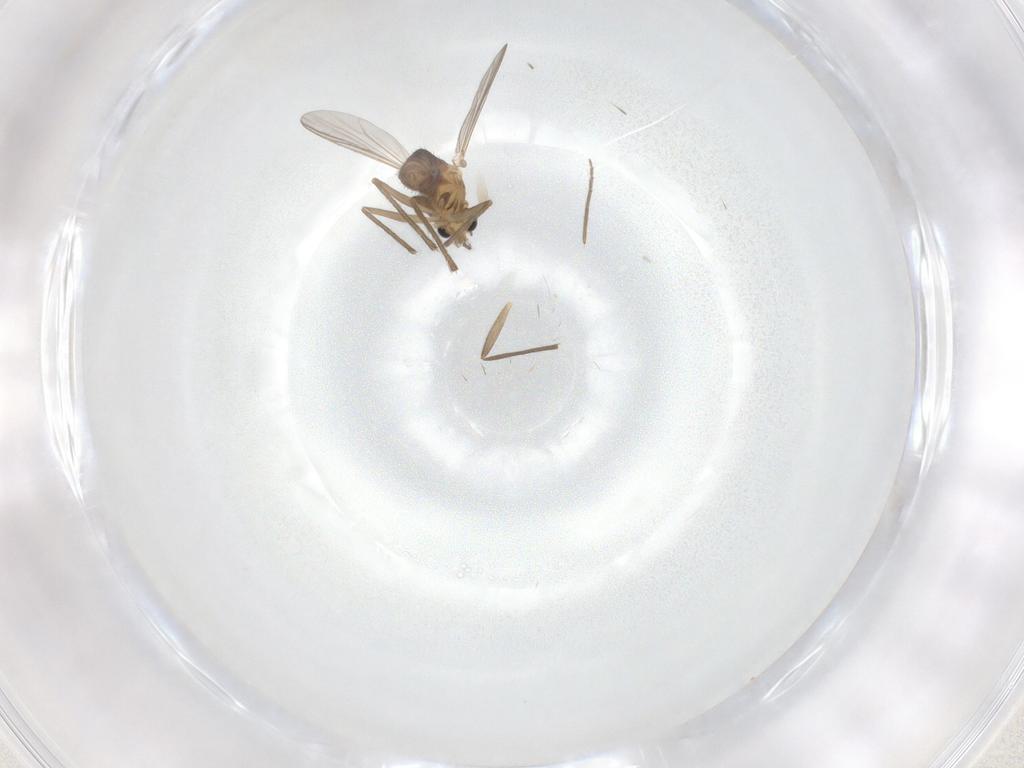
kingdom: Animalia
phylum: Arthropoda
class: Insecta
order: Diptera
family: Chironomidae
